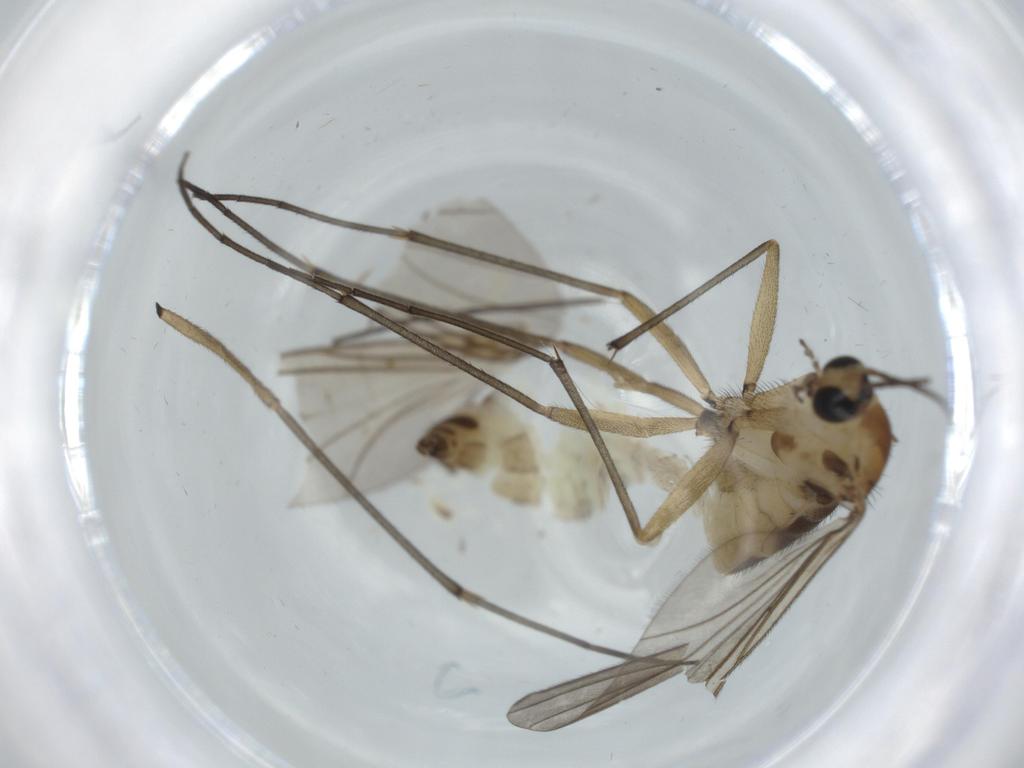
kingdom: Animalia
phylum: Arthropoda
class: Insecta
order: Diptera
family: Sciaridae
